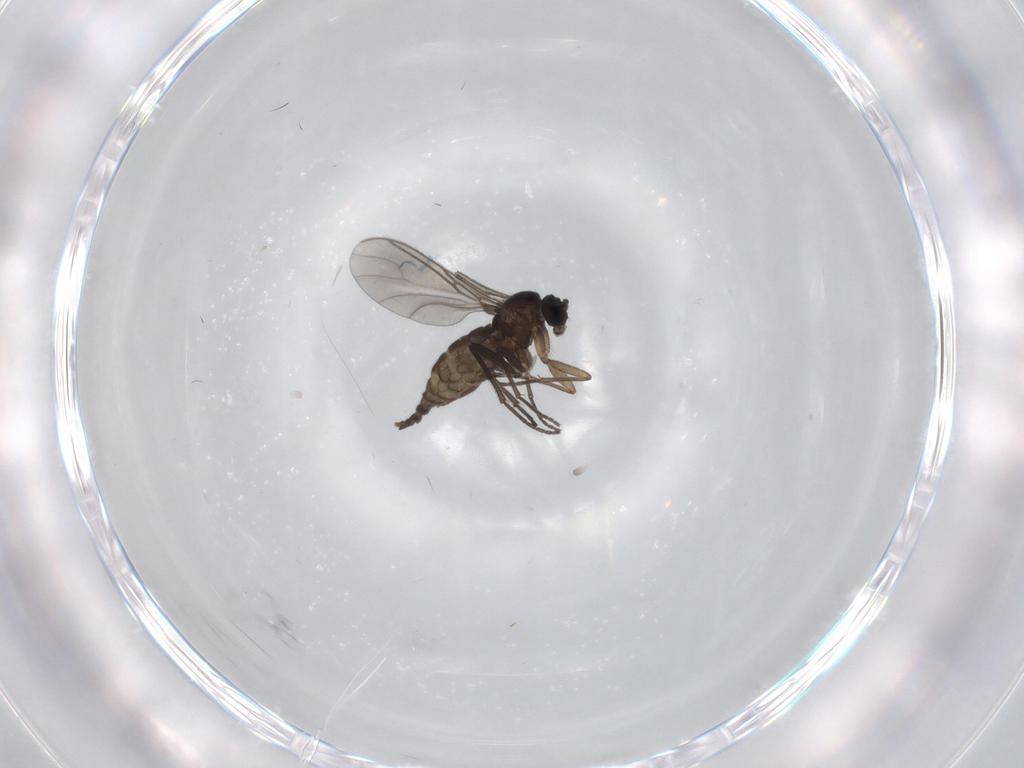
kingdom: Animalia
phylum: Arthropoda
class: Insecta
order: Diptera
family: Sciaridae
